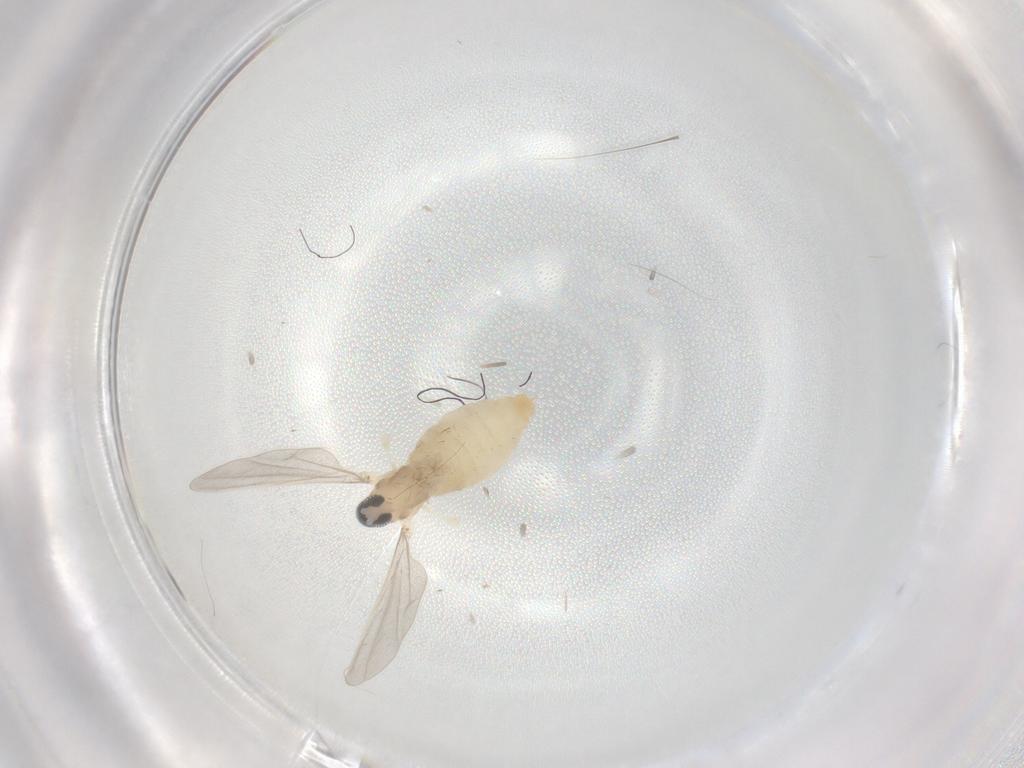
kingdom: Animalia
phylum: Arthropoda
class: Insecta
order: Diptera
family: Cecidomyiidae
